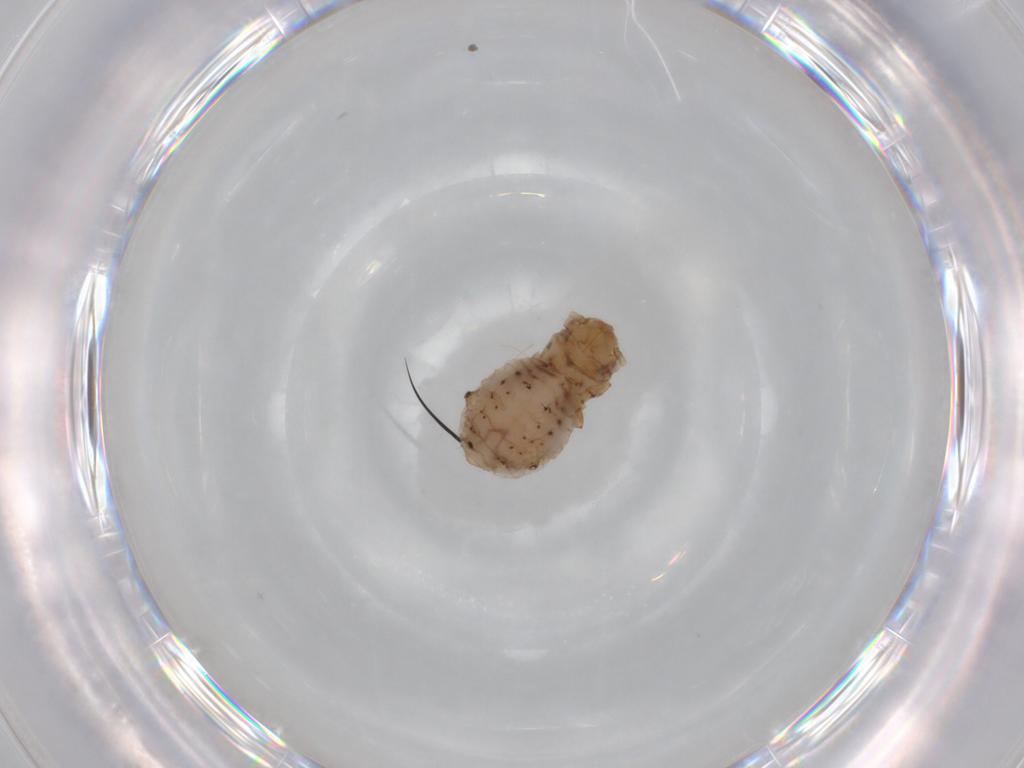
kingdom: Animalia
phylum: Arthropoda
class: Insecta
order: Hemiptera
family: Aphididae
